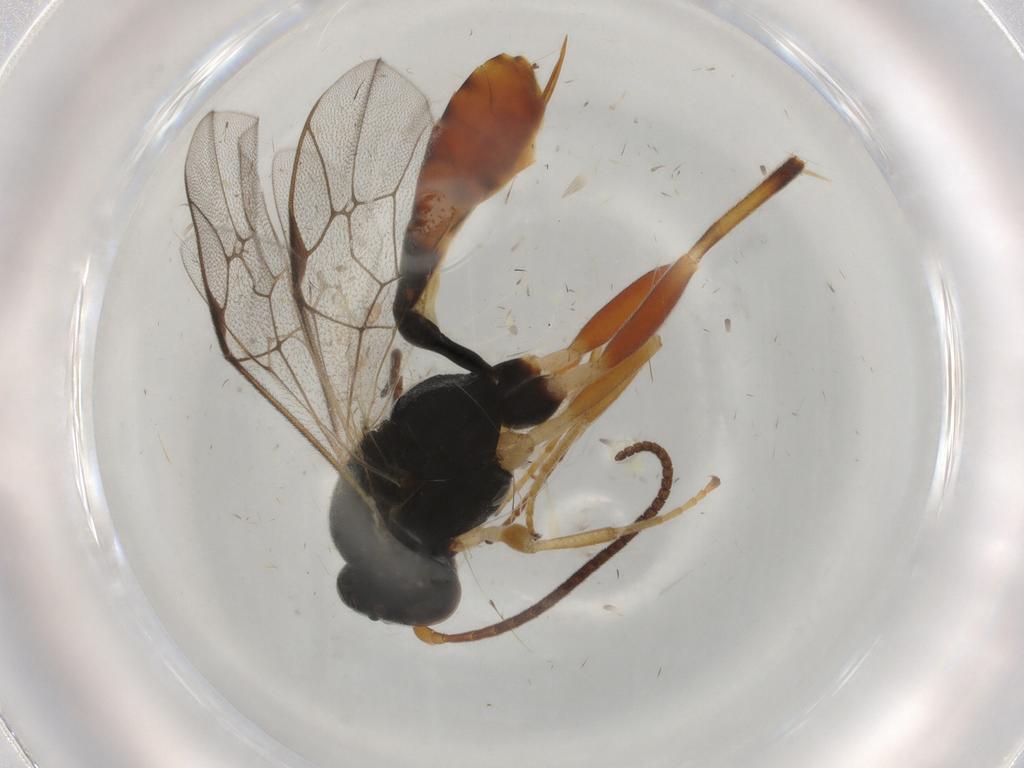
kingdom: Animalia
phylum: Arthropoda
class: Insecta
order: Hymenoptera
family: Ichneumonidae
